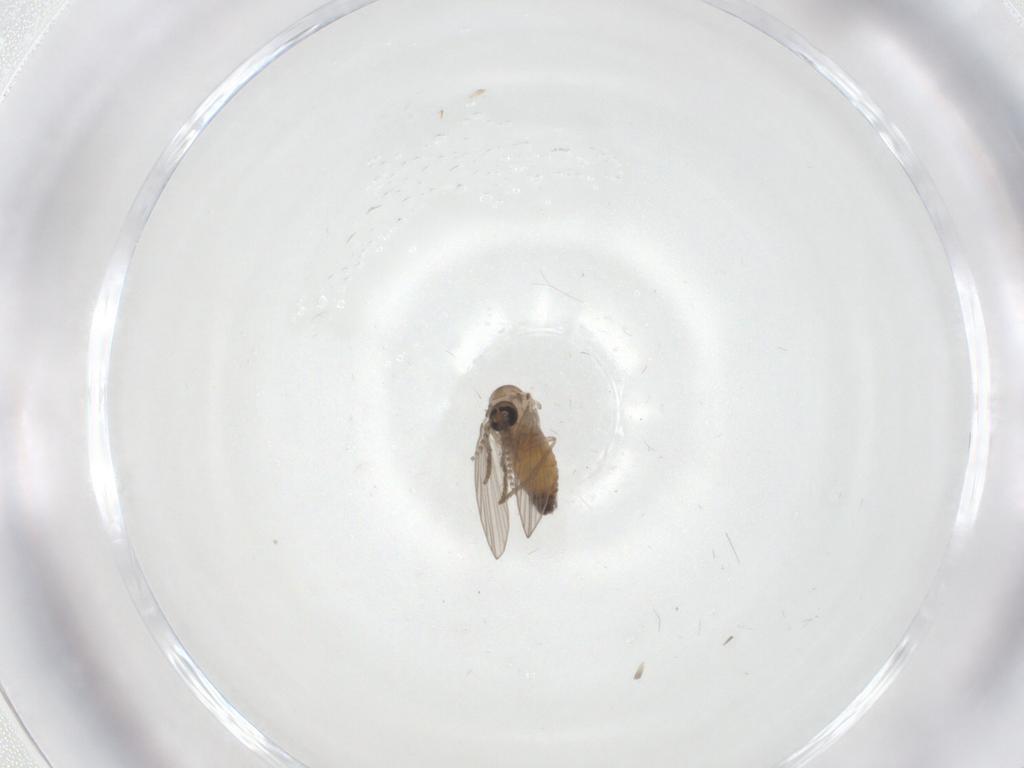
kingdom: Animalia
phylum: Arthropoda
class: Insecta
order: Diptera
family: Psychodidae
